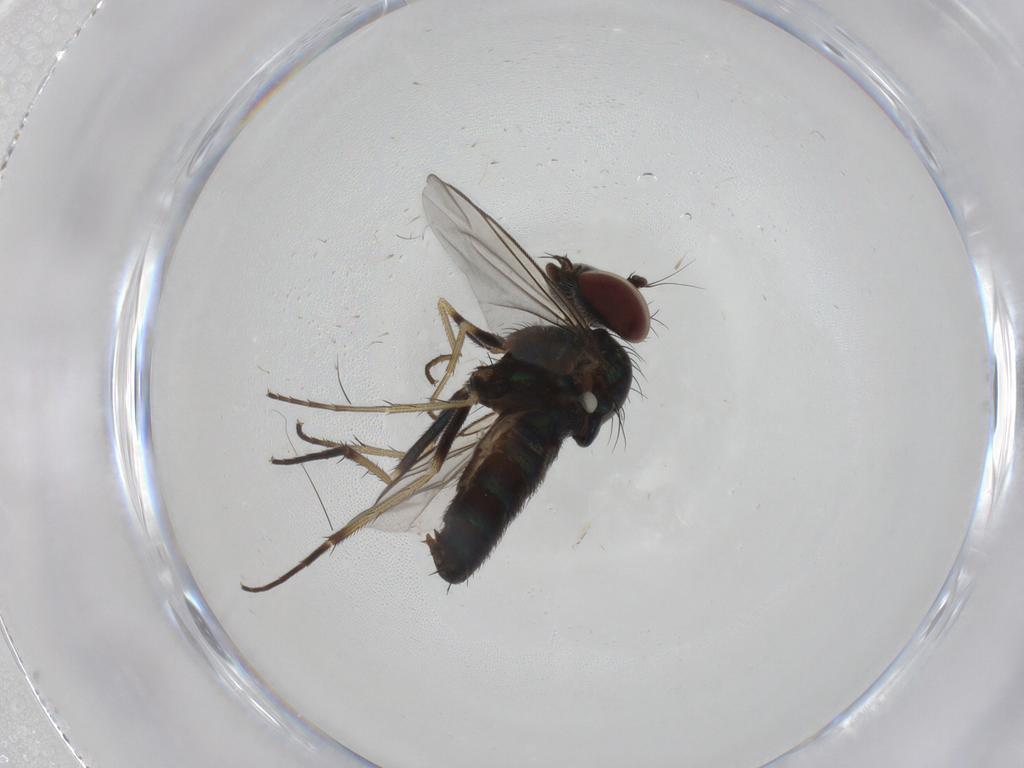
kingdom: Animalia
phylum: Arthropoda
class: Insecta
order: Diptera
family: Dolichopodidae
